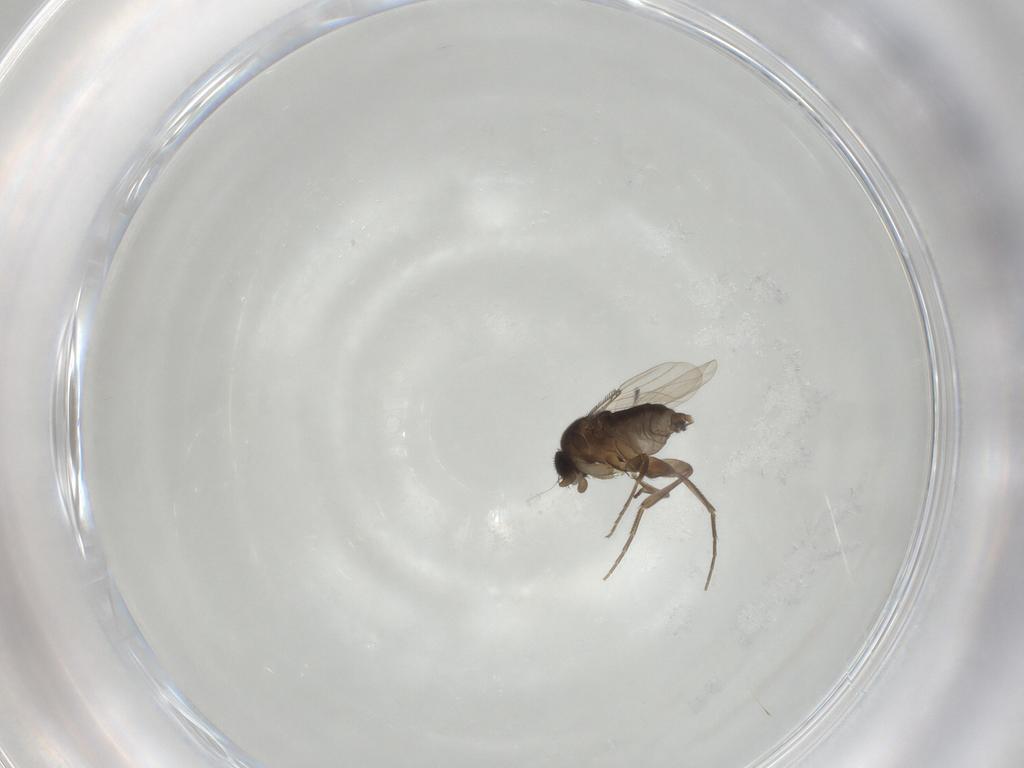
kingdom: Animalia
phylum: Arthropoda
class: Insecta
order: Diptera
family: Phoridae
